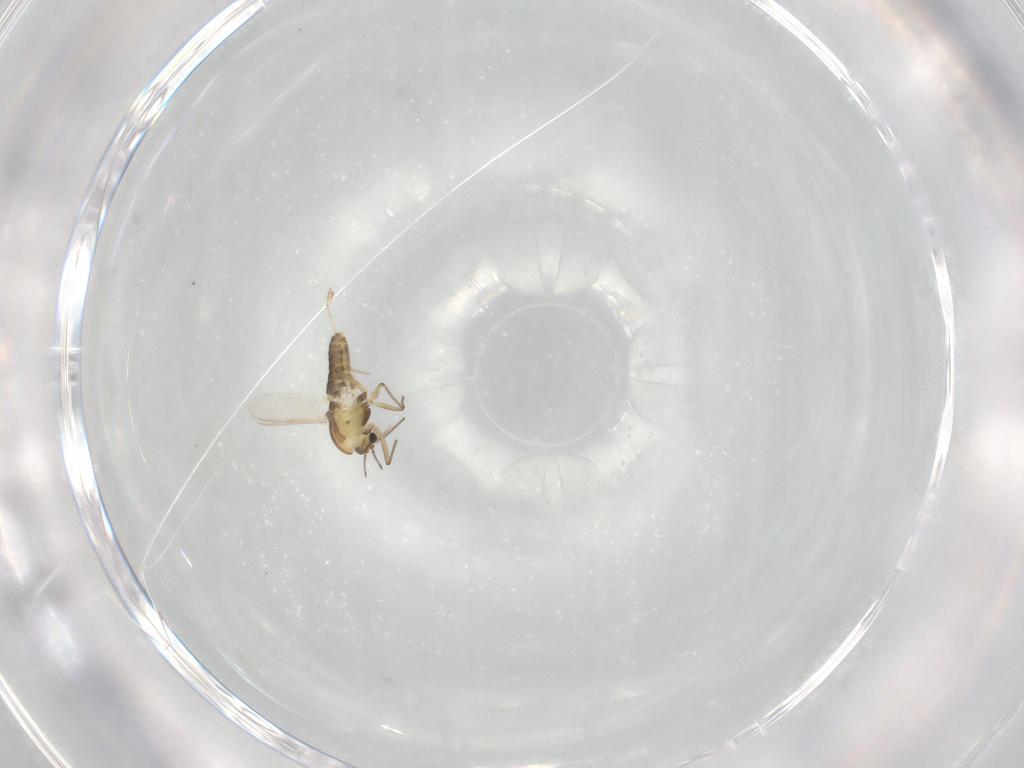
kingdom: Animalia
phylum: Arthropoda
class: Insecta
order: Diptera
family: Chironomidae
